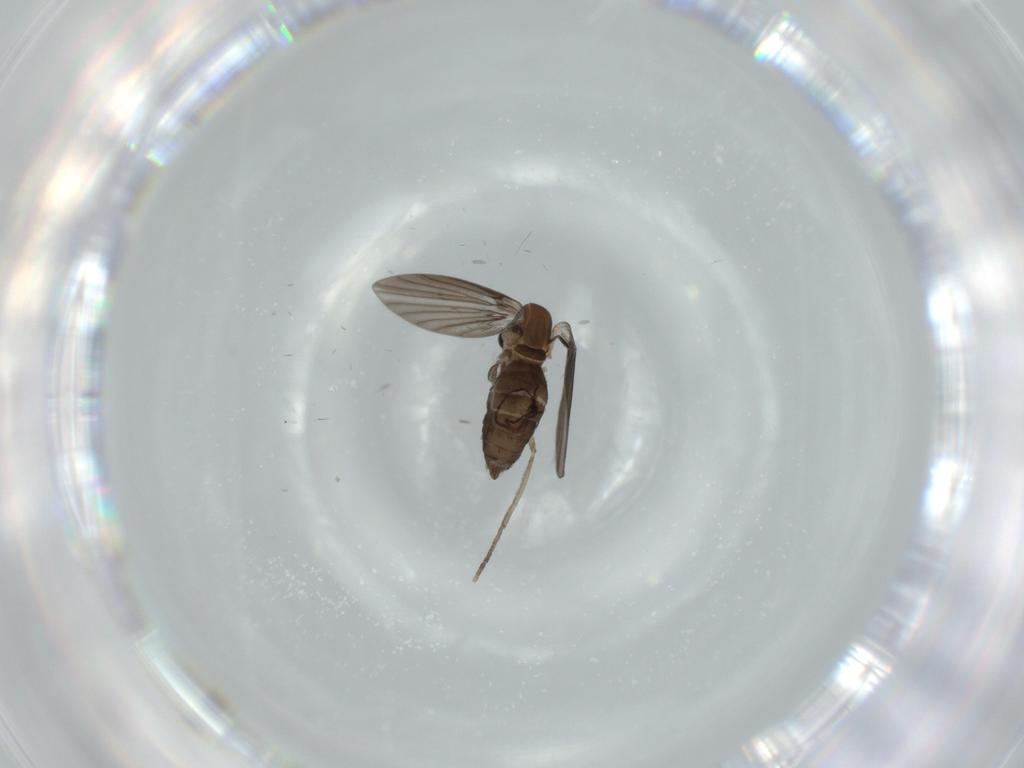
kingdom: Animalia
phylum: Arthropoda
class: Insecta
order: Diptera
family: Psychodidae
